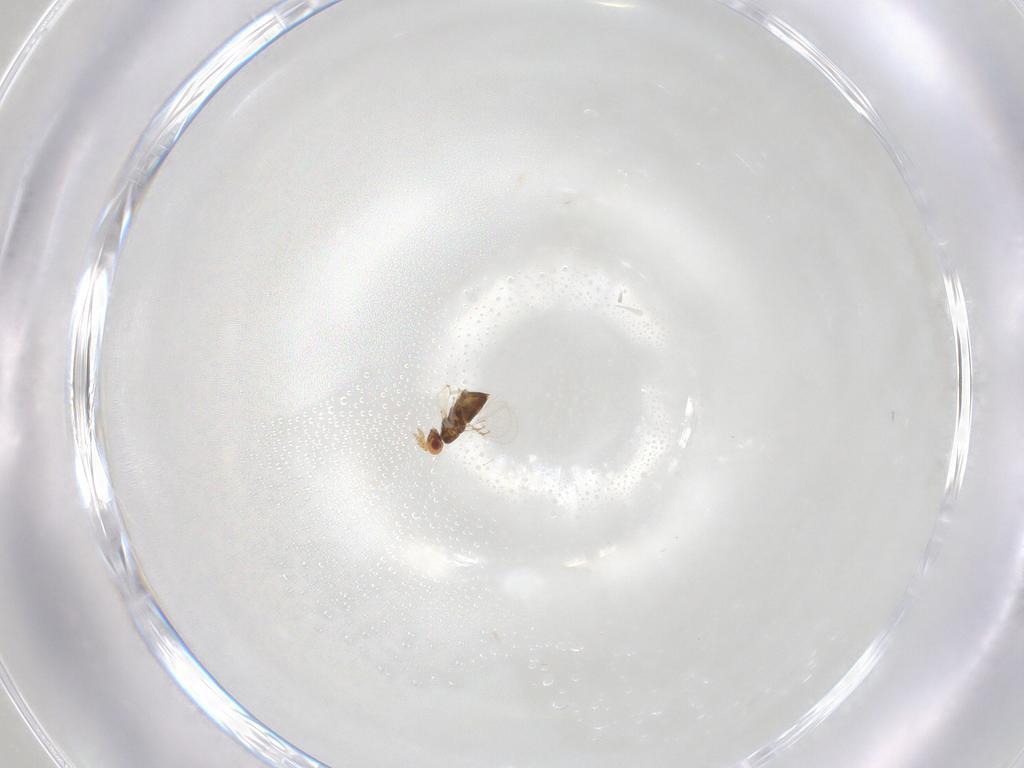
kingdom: Animalia
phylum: Arthropoda
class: Insecta
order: Hymenoptera
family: Trichogrammatidae
